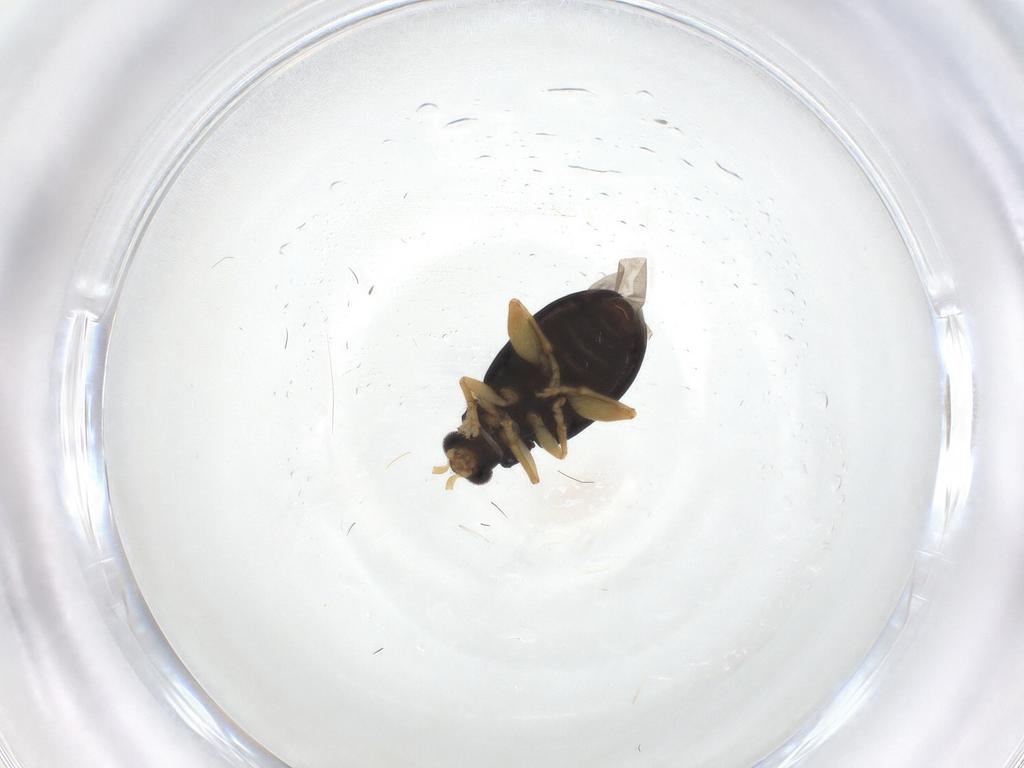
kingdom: Animalia
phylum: Arthropoda
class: Insecta
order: Coleoptera
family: Chrysomelidae
